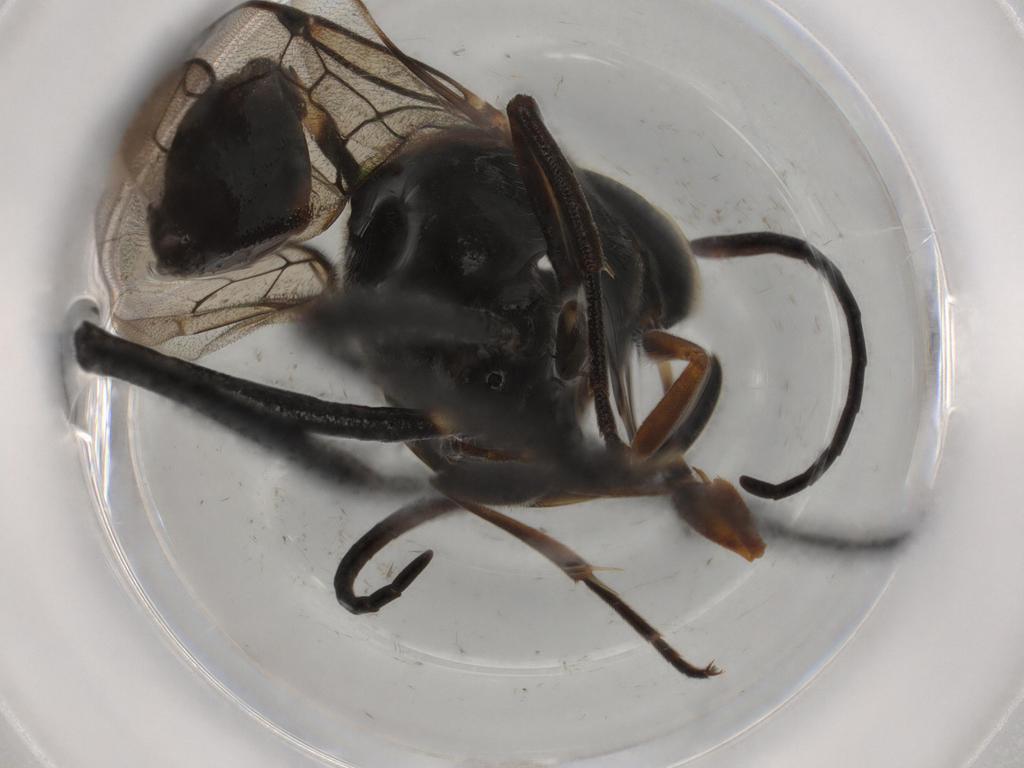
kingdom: Animalia
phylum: Arthropoda
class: Insecta
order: Hymenoptera
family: Evaniidae
